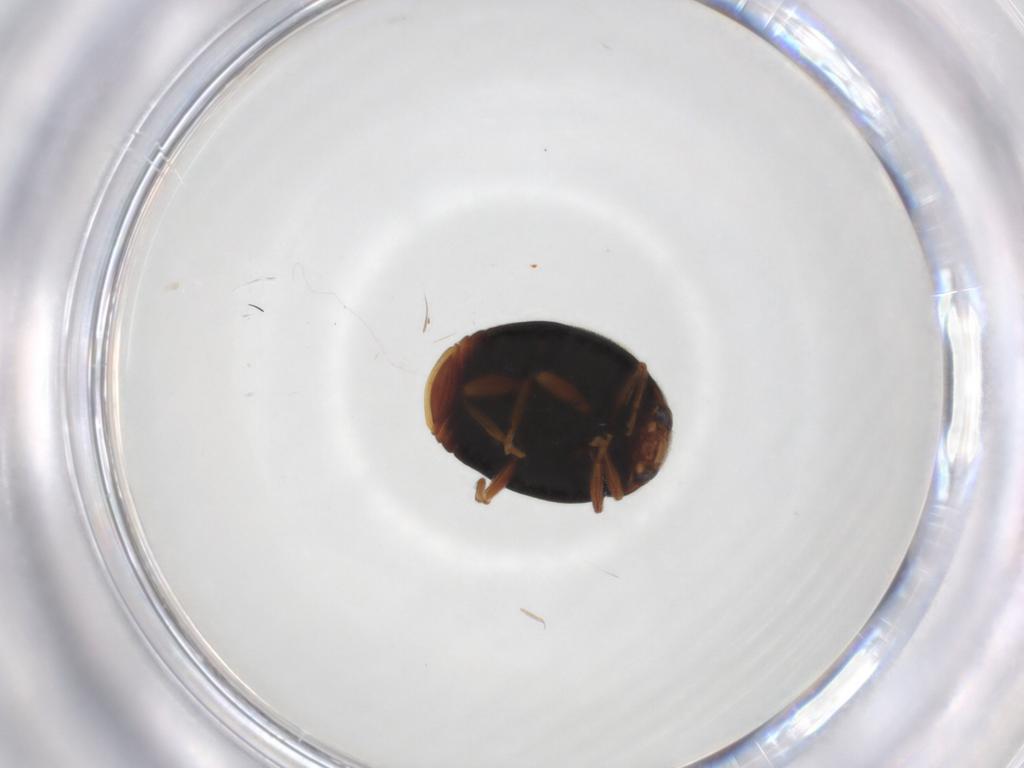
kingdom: Animalia
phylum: Arthropoda
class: Insecta
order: Coleoptera
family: Coccinellidae
